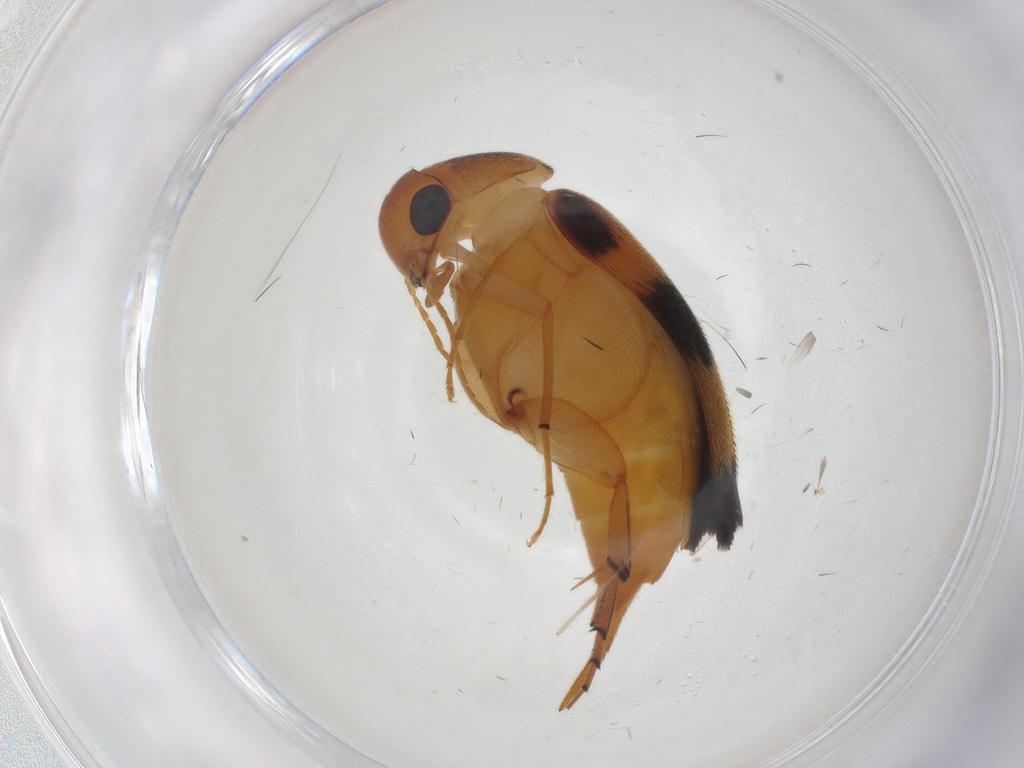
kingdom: Animalia
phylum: Arthropoda
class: Insecta
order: Coleoptera
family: Mordellidae
